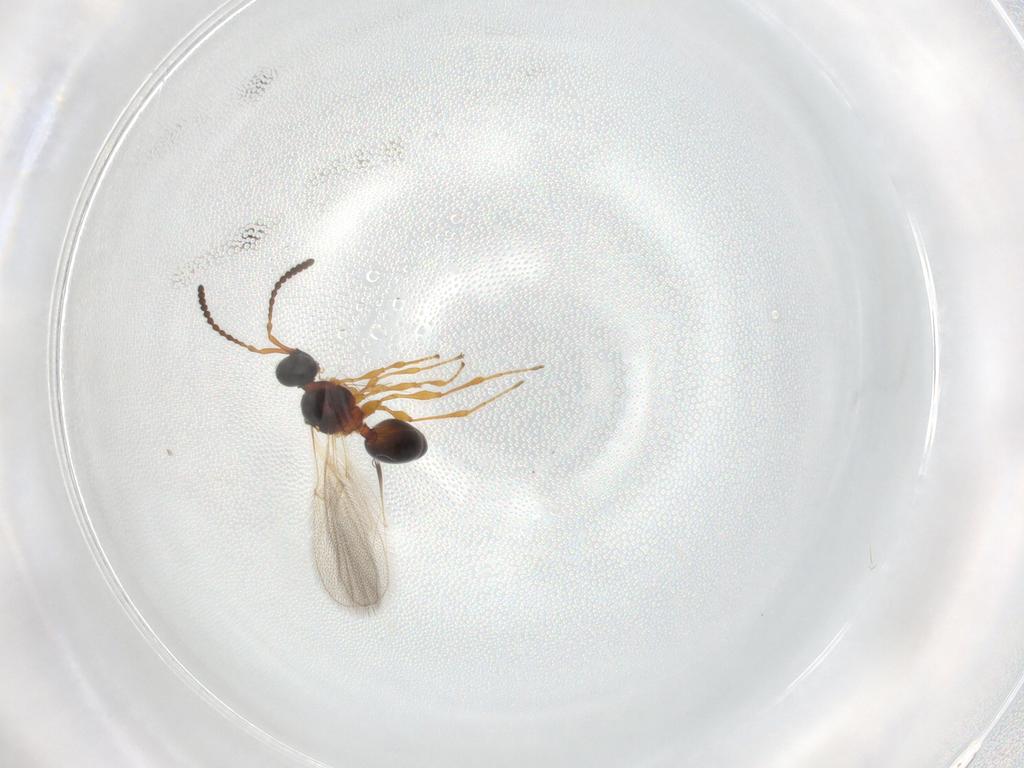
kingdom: Animalia
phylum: Arthropoda
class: Insecta
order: Hymenoptera
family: Diapriidae
